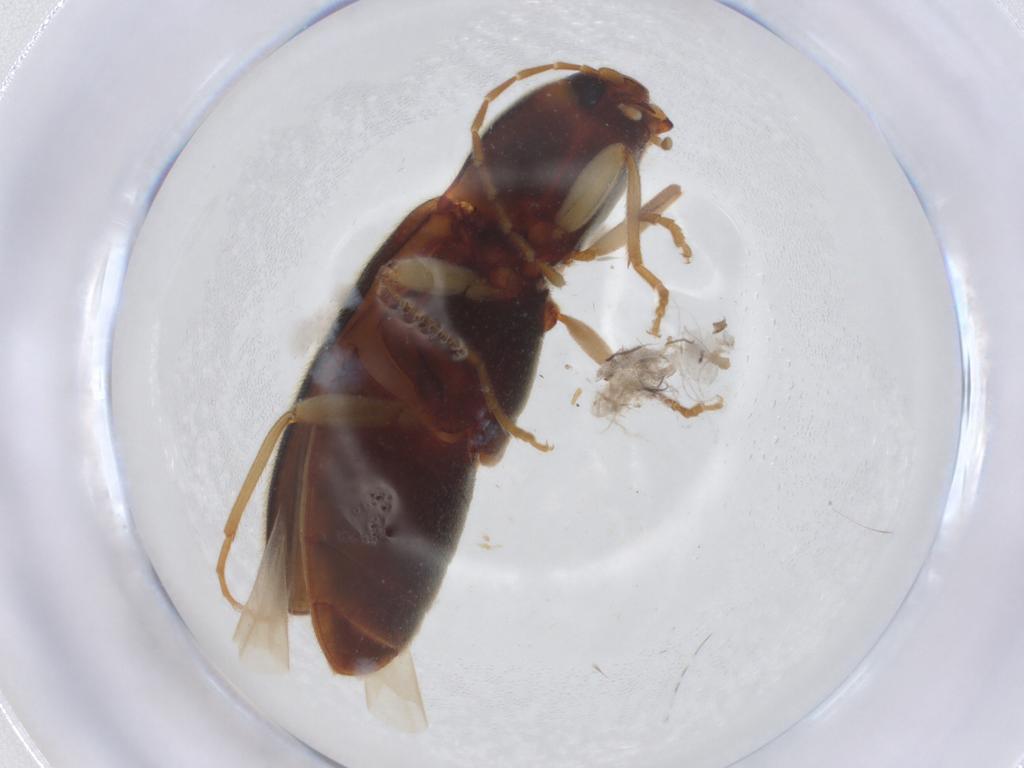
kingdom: Animalia
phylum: Arthropoda
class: Insecta
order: Coleoptera
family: Elateridae
